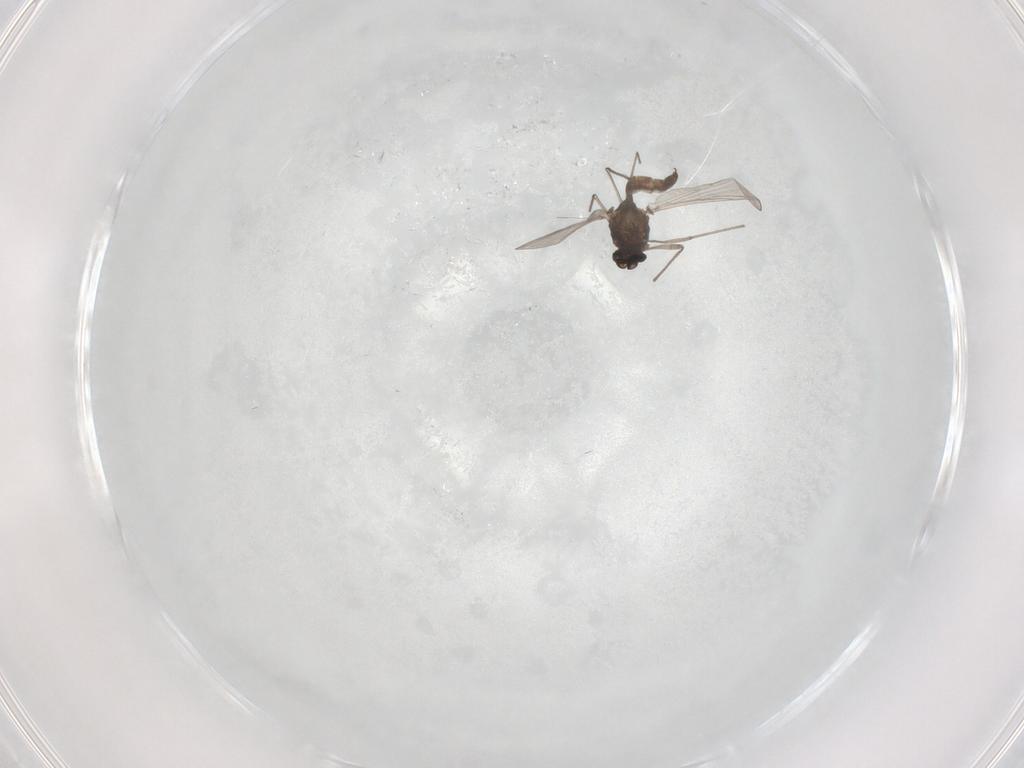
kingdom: Animalia
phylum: Arthropoda
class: Insecta
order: Diptera
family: Chironomidae
